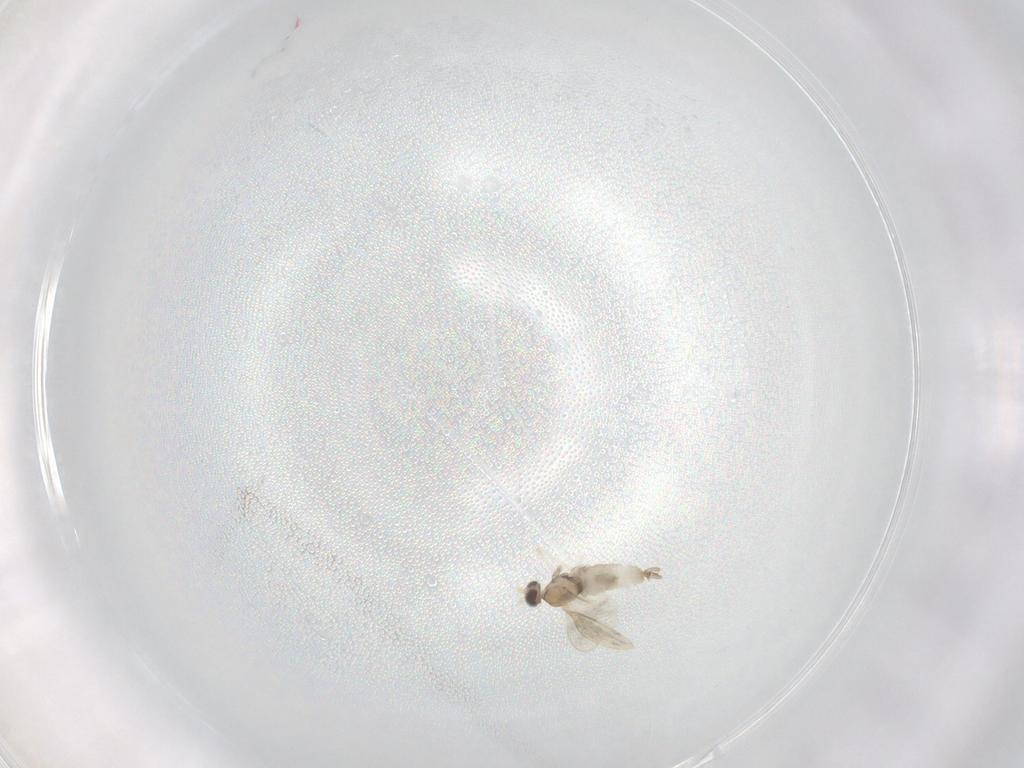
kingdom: Animalia
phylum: Arthropoda
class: Insecta
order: Diptera
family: Cecidomyiidae
